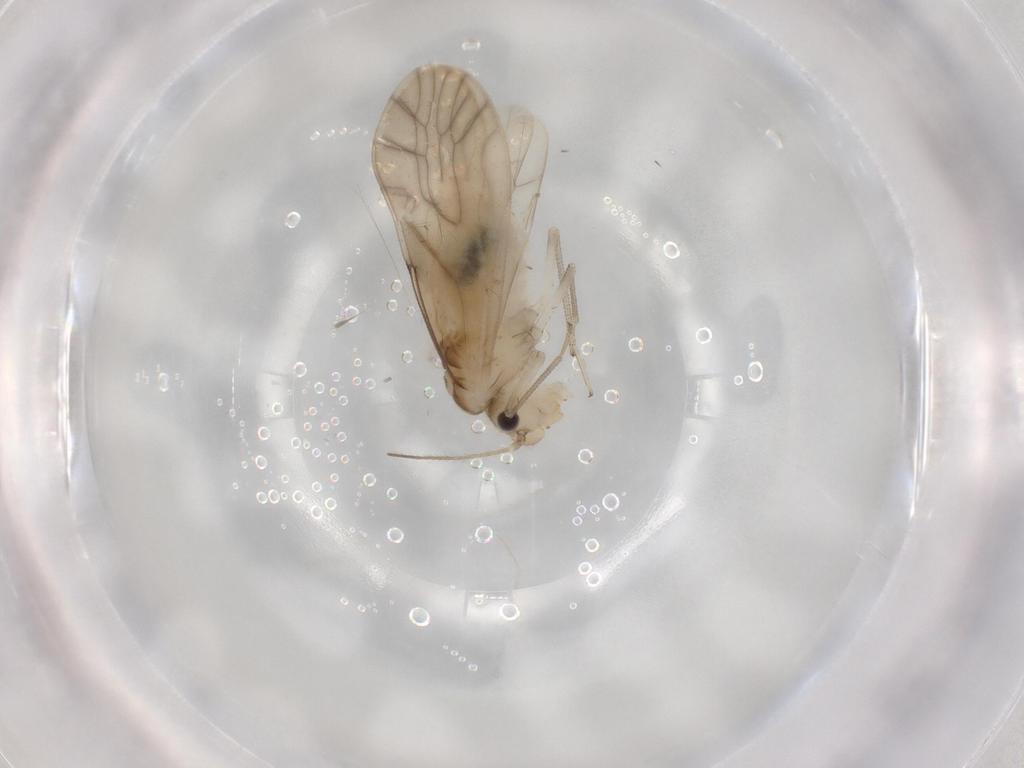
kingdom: Animalia
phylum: Arthropoda
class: Insecta
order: Psocodea
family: Caeciliusidae
